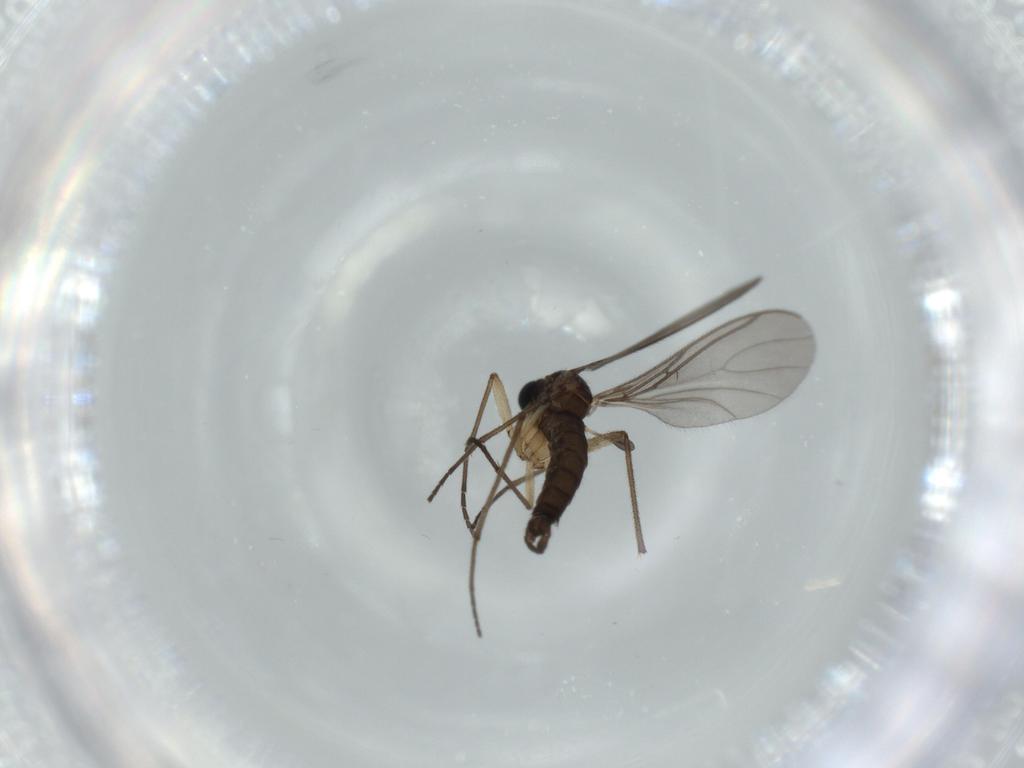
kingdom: Animalia
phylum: Arthropoda
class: Insecta
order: Diptera
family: Sciaridae
